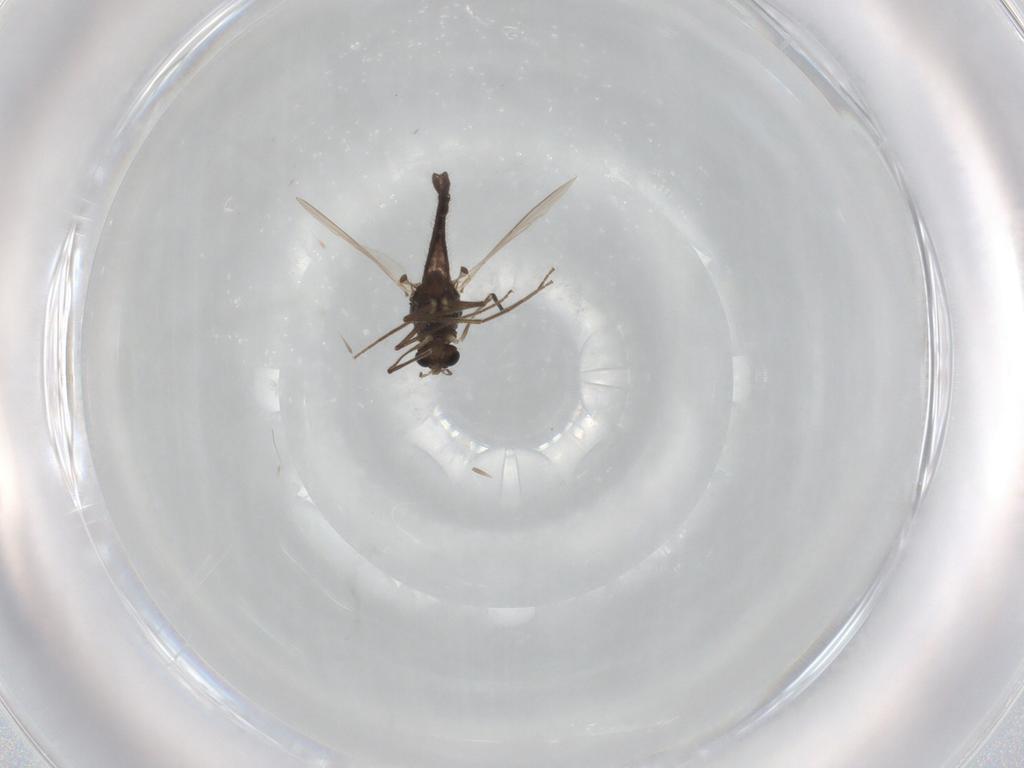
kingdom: Animalia
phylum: Arthropoda
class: Insecta
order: Diptera
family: Chironomidae
